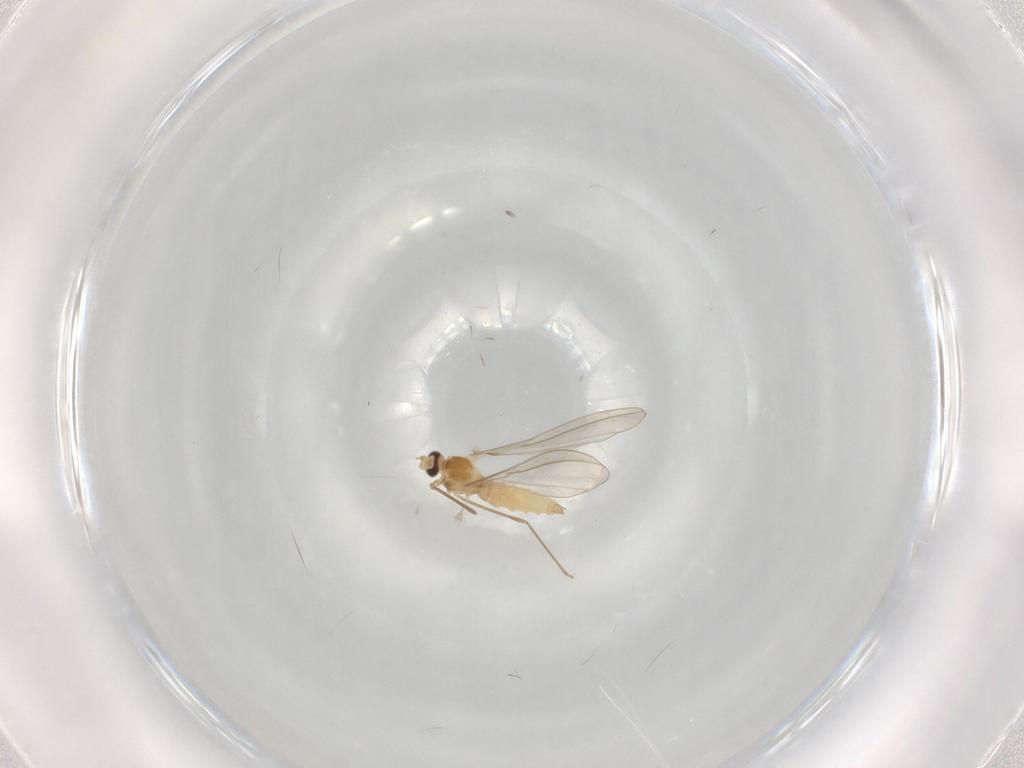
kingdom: Animalia
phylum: Arthropoda
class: Insecta
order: Diptera
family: Cecidomyiidae
